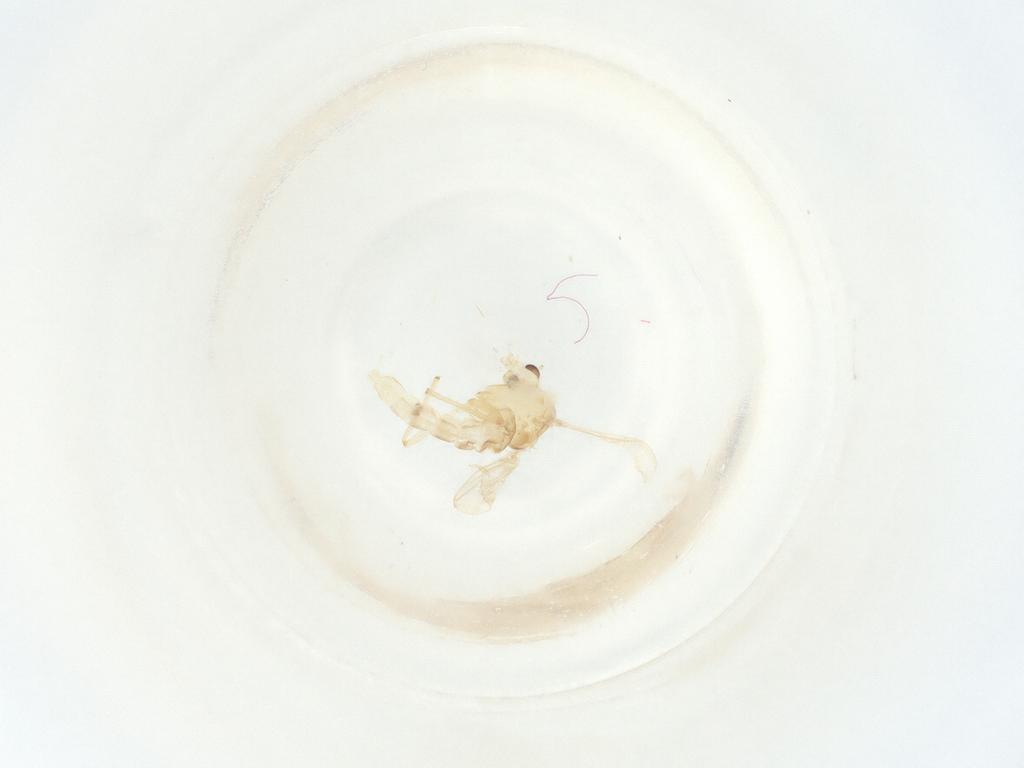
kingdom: Animalia
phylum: Arthropoda
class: Insecta
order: Diptera
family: Chironomidae
